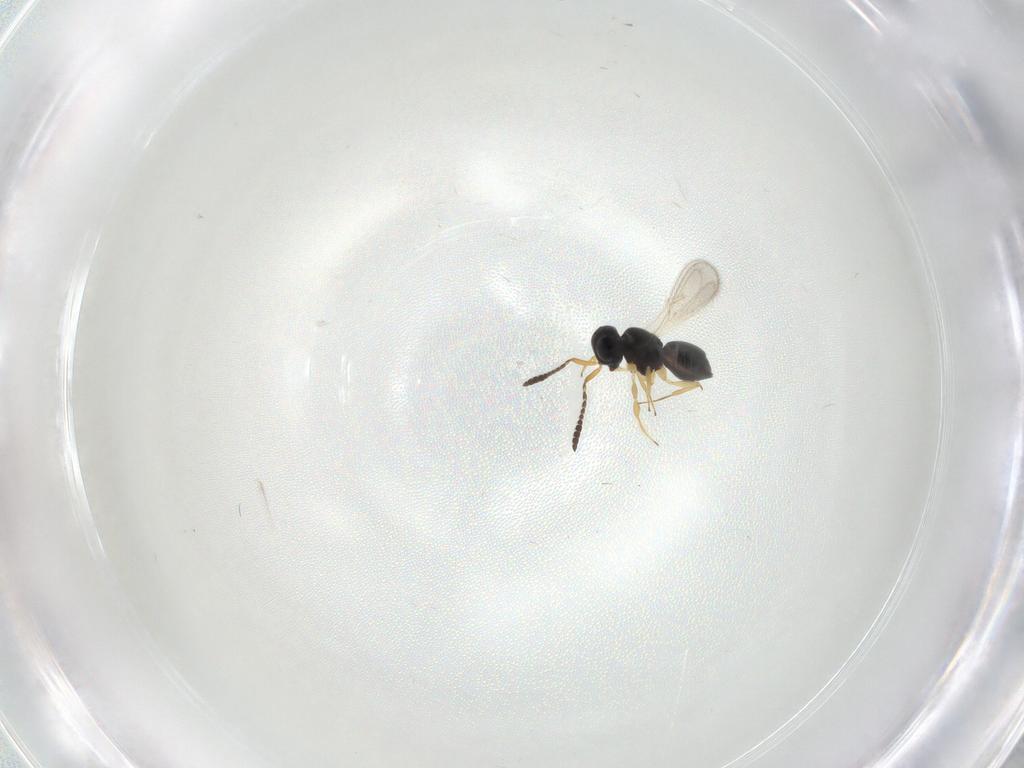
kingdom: Animalia
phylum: Arthropoda
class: Insecta
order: Hymenoptera
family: Scelionidae
